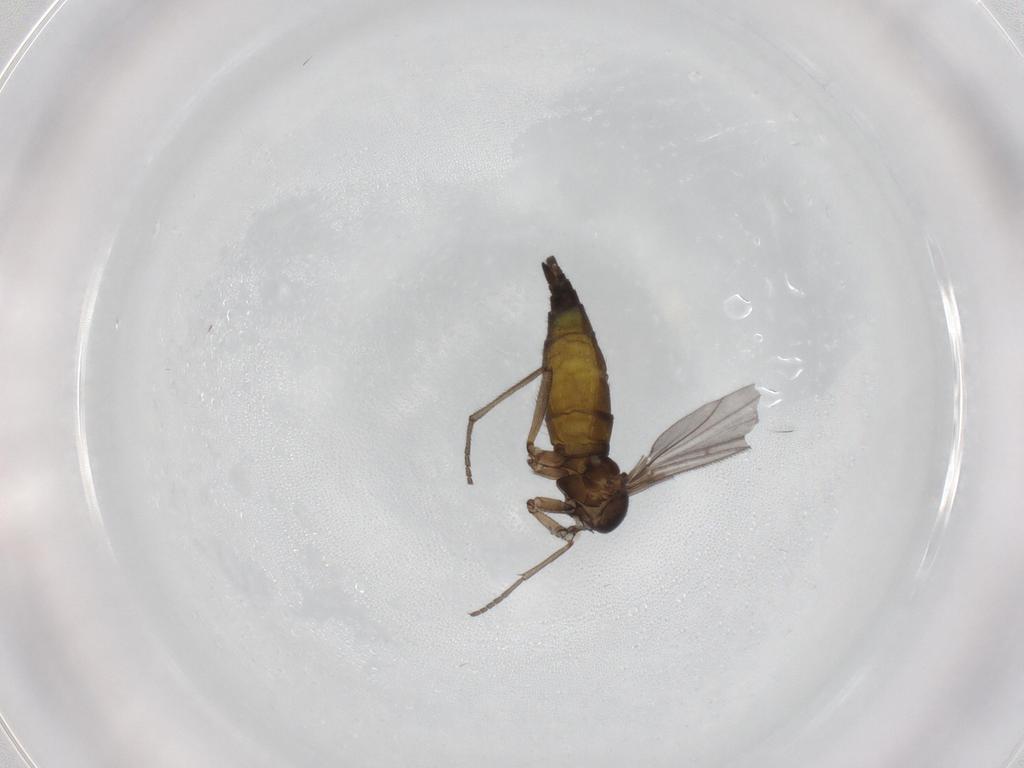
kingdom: Animalia
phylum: Arthropoda
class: Insecta
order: Diptera
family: Sciaridae
